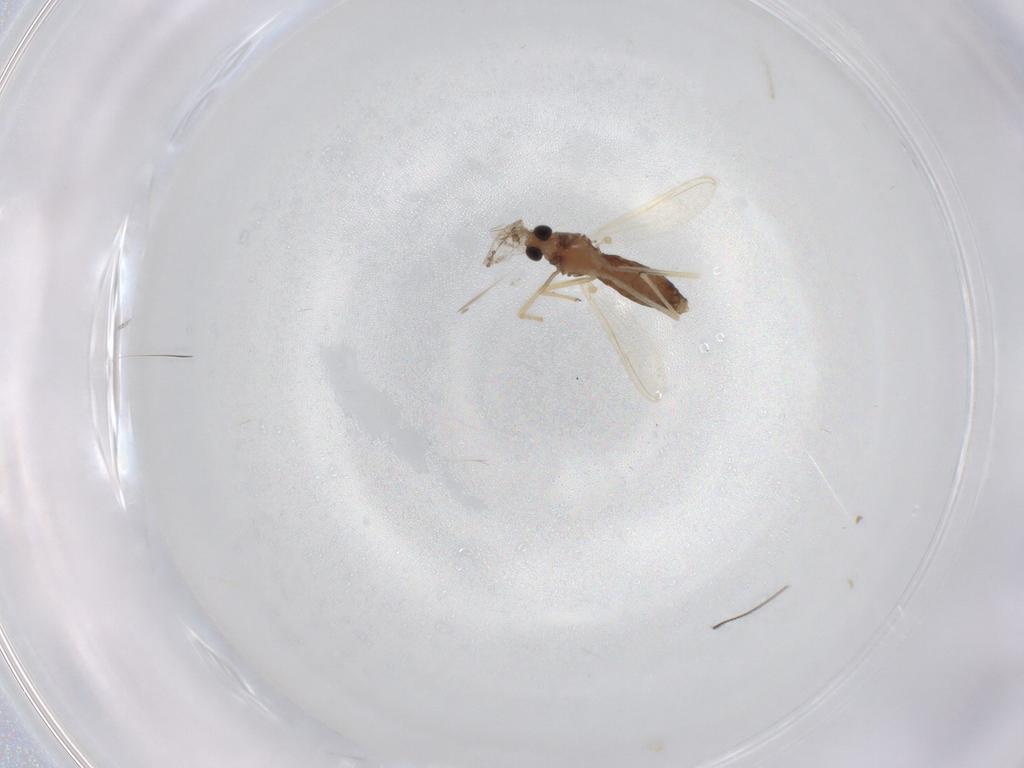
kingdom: Animalia
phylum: Arthropoda
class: Insecta
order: Diptera
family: Chironomidae
